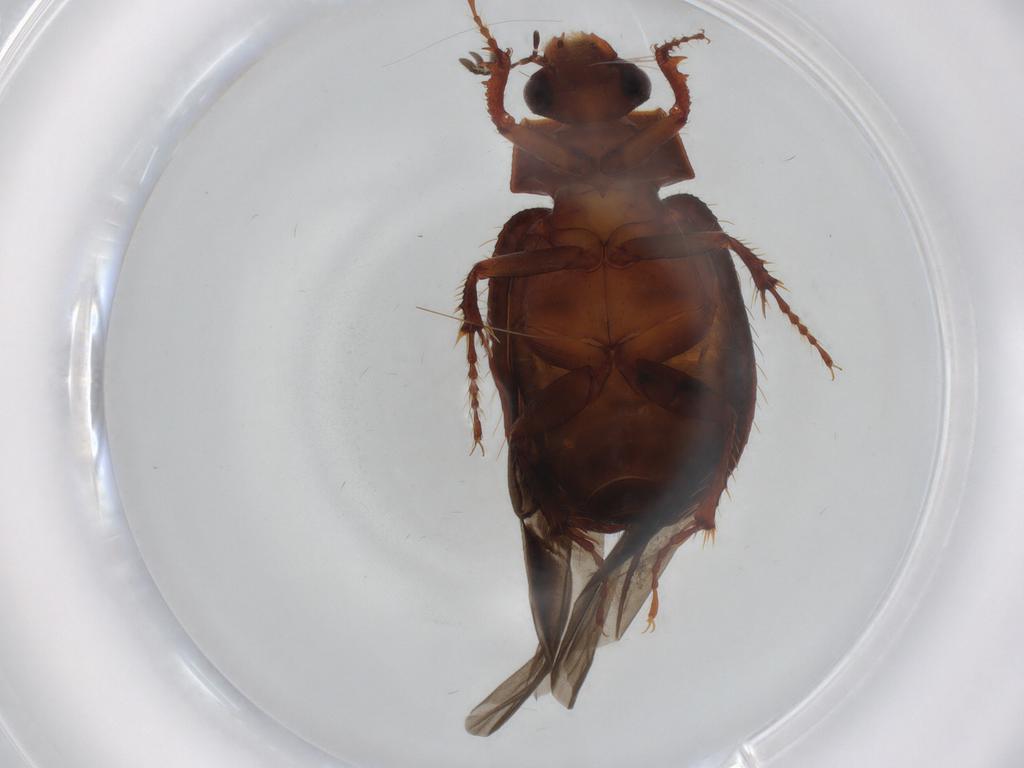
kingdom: Animalia
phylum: Arthropoda
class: Insecta
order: Coleoptera
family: Hybosoridae
